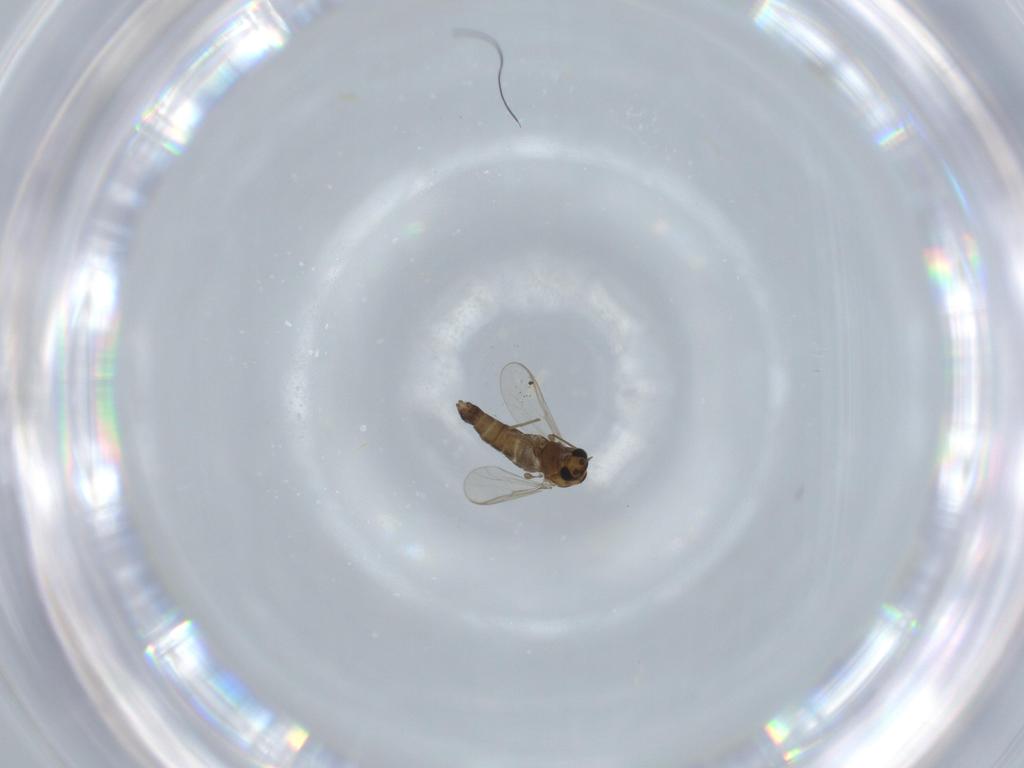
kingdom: Animalia
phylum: Arthropoda
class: Insecta
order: Diptera
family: Chironomidae
